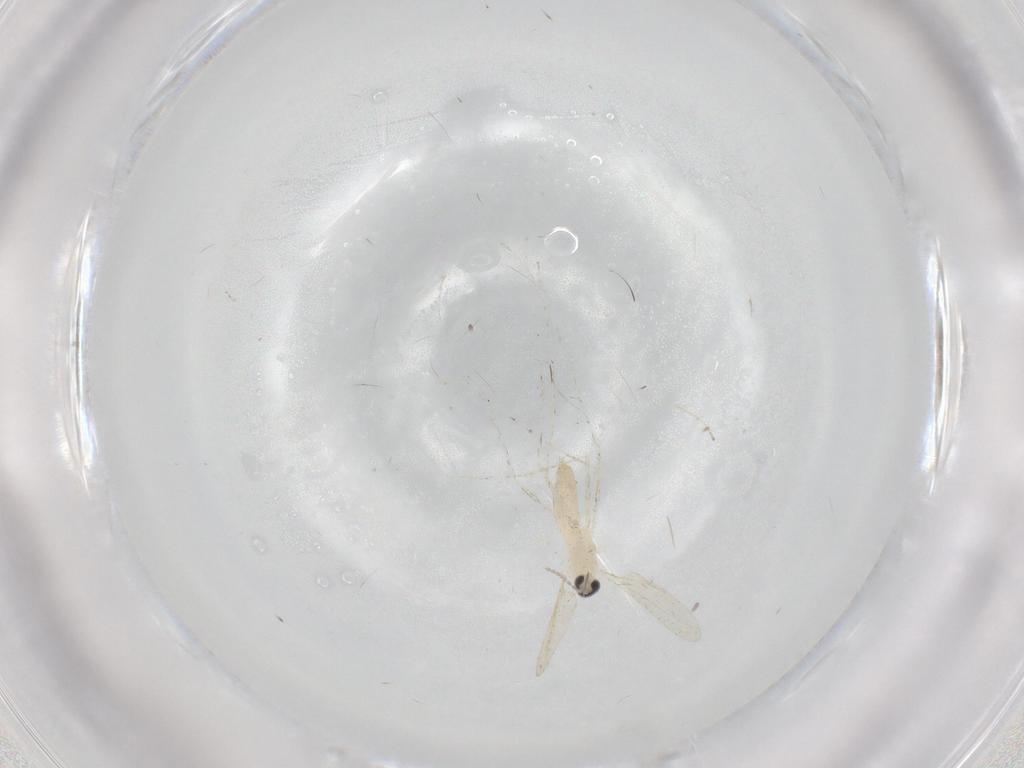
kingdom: Animalia
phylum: Arthropoda
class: Insecta
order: Diptera
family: Cecidomyiidae
